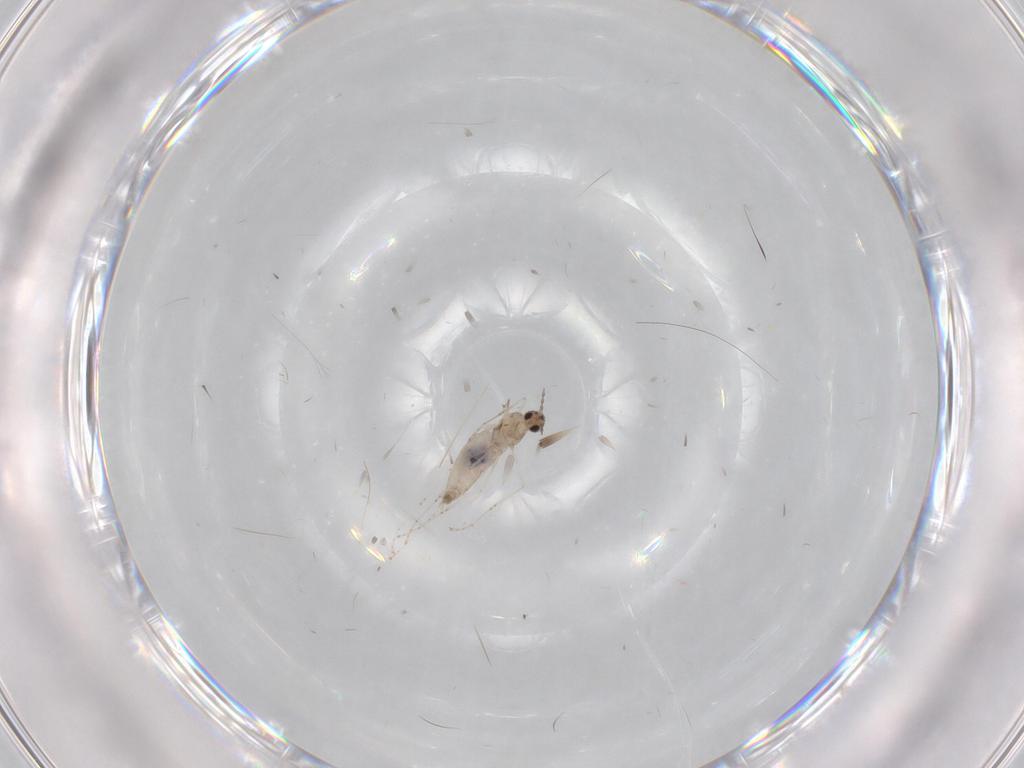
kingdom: Animalia
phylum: Arthropoda
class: Insecta
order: Diptera
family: Cecidomyiidae
